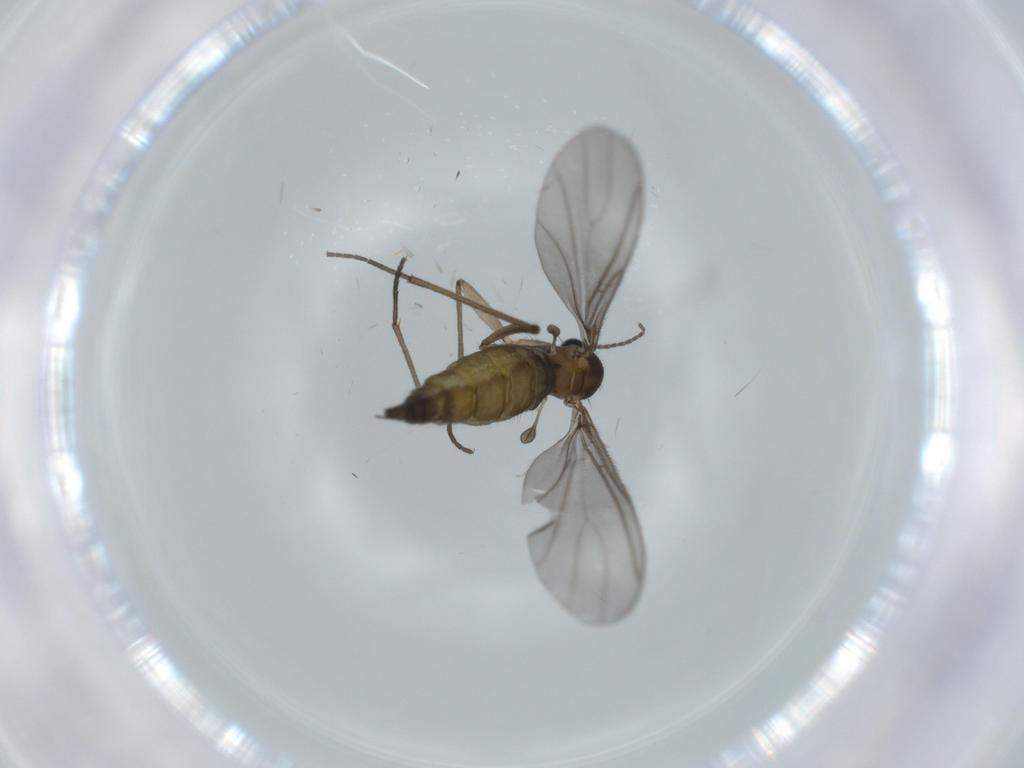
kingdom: Animalia
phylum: Arthropoda
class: Insecta
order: Diptera
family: Sciaridae
